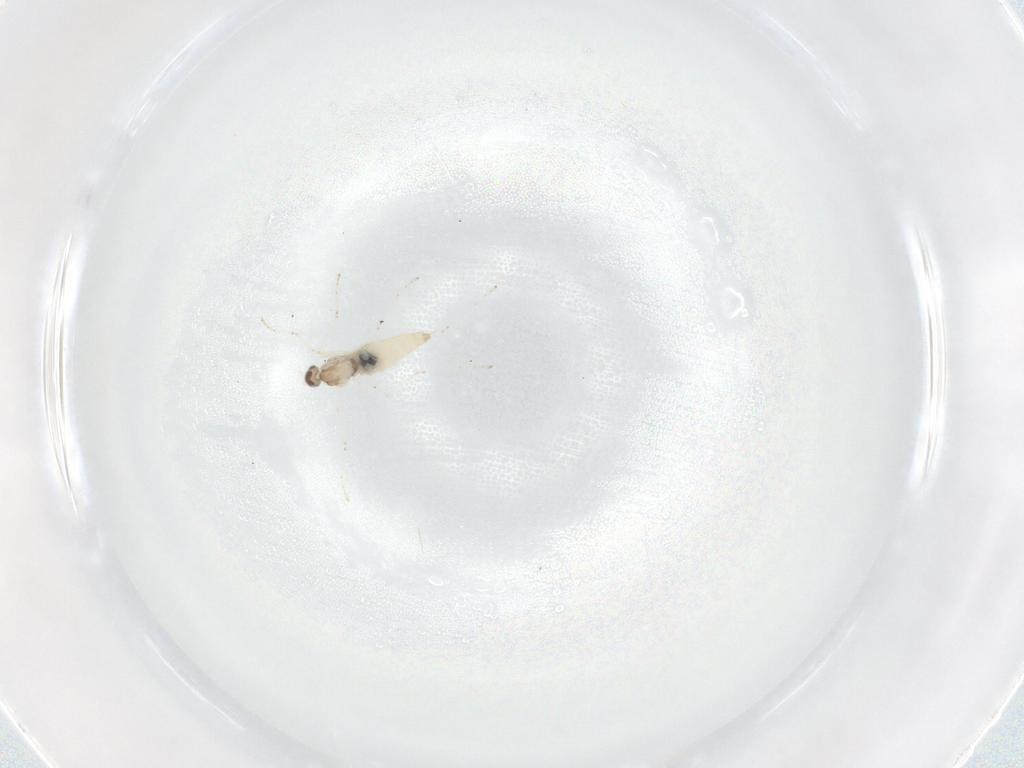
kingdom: Animalia
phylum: Arthropoda
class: Insecta
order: Diptera
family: Cecidomyiidae
